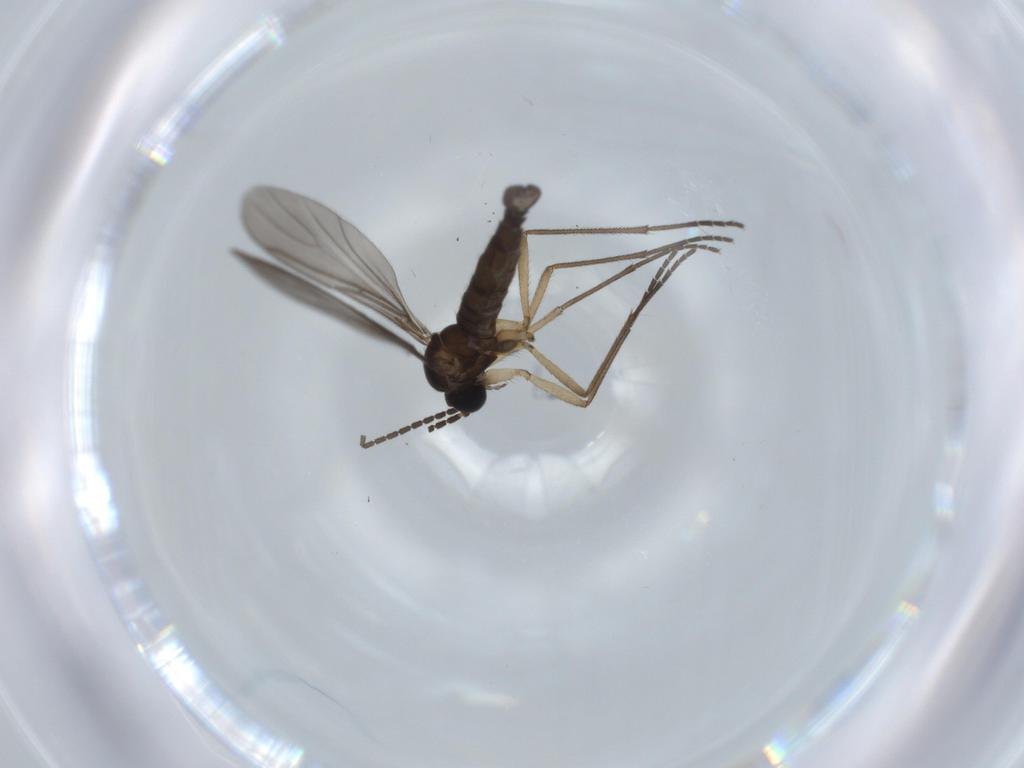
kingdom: Animalia
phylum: Arthropoda
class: Insecta
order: Diptera
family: Sciaridae
